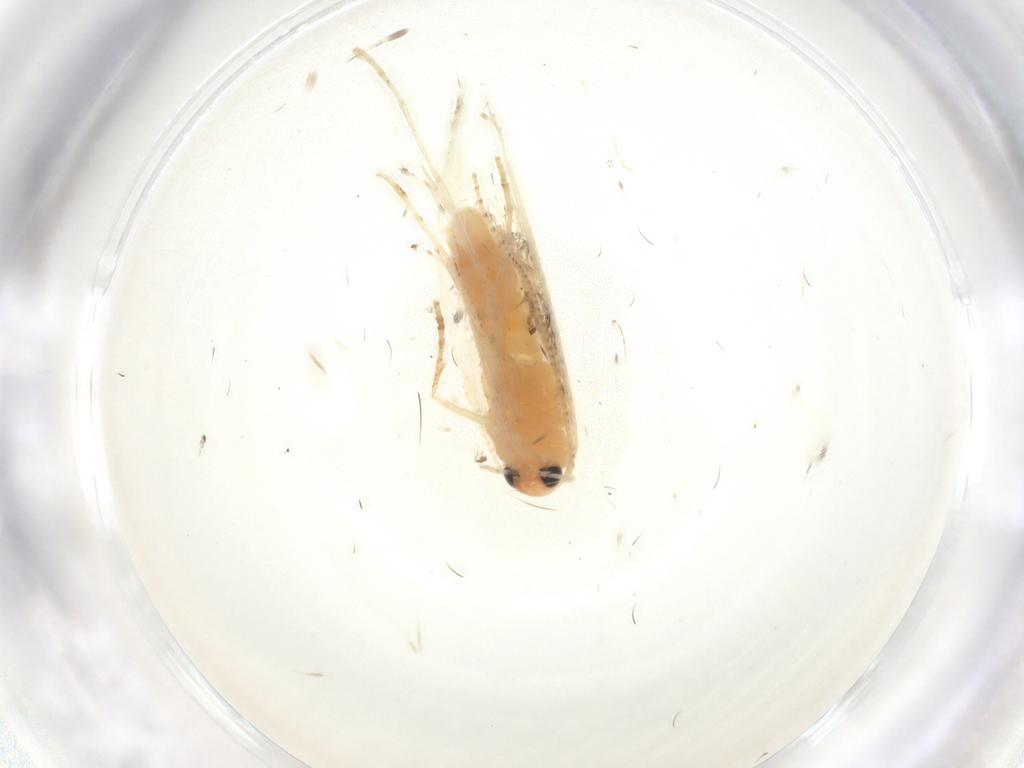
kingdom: Animalia
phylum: Arthropoda
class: Insecta
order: Lepidoptera
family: Gelechiidae
